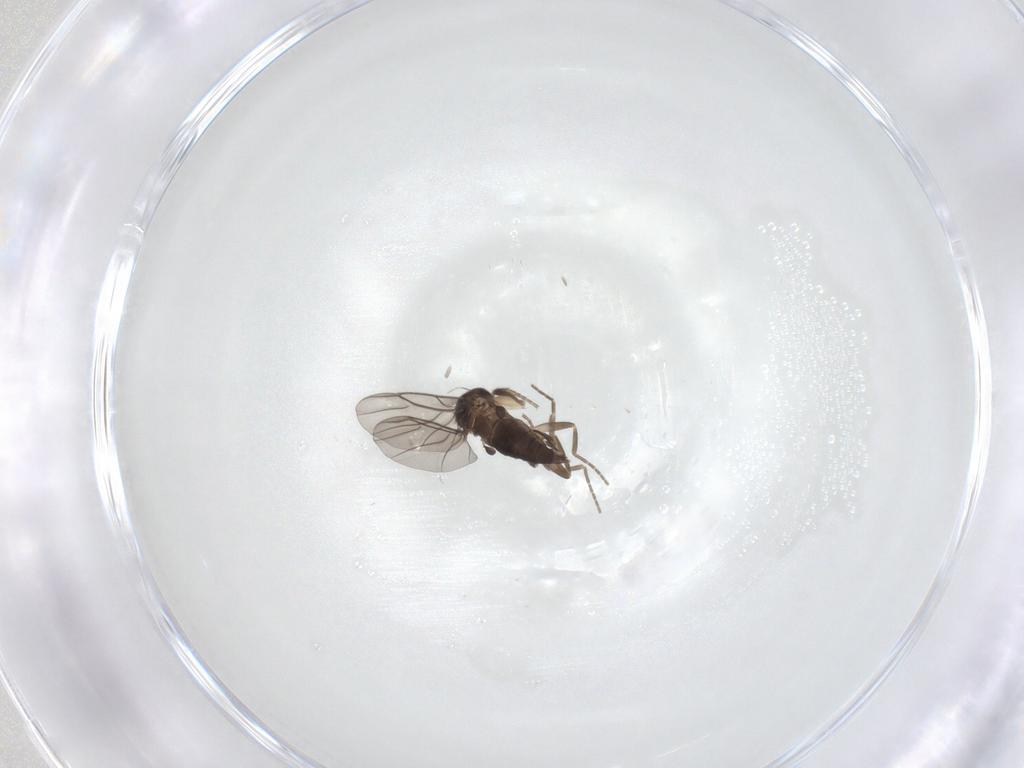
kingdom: Animalia
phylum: Arthropoda
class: Insecta
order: Diptera
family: Phoridae
